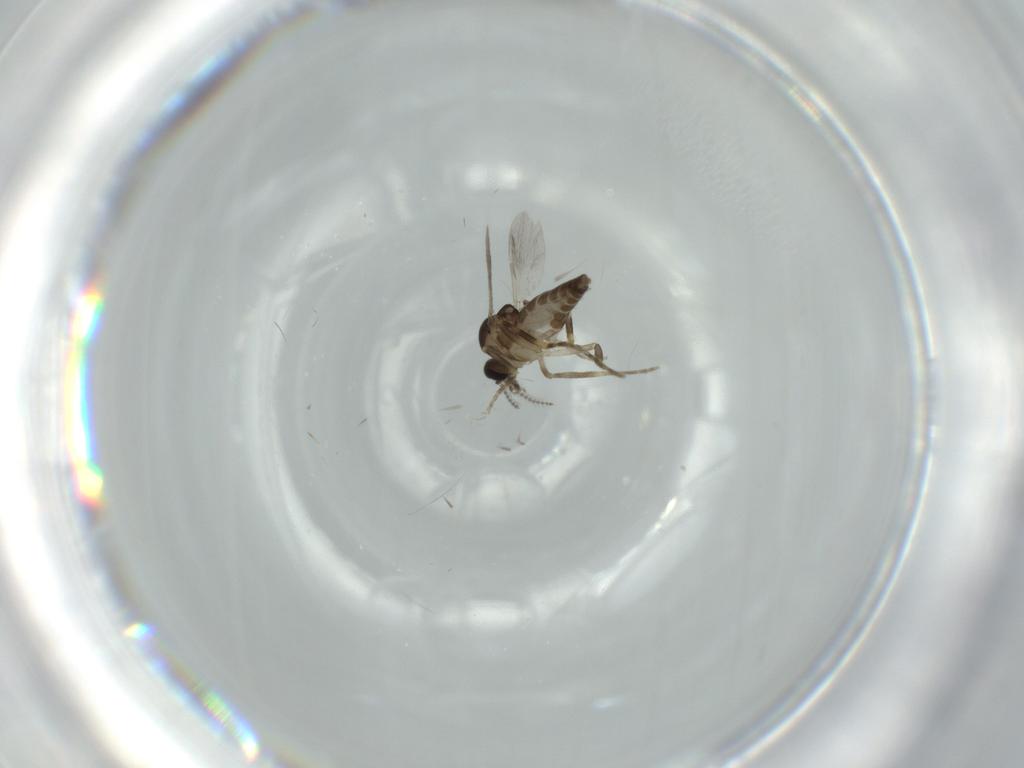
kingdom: Animalia
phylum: Arthropoda
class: Insecta
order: Diptera
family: Ceratopogonidae
